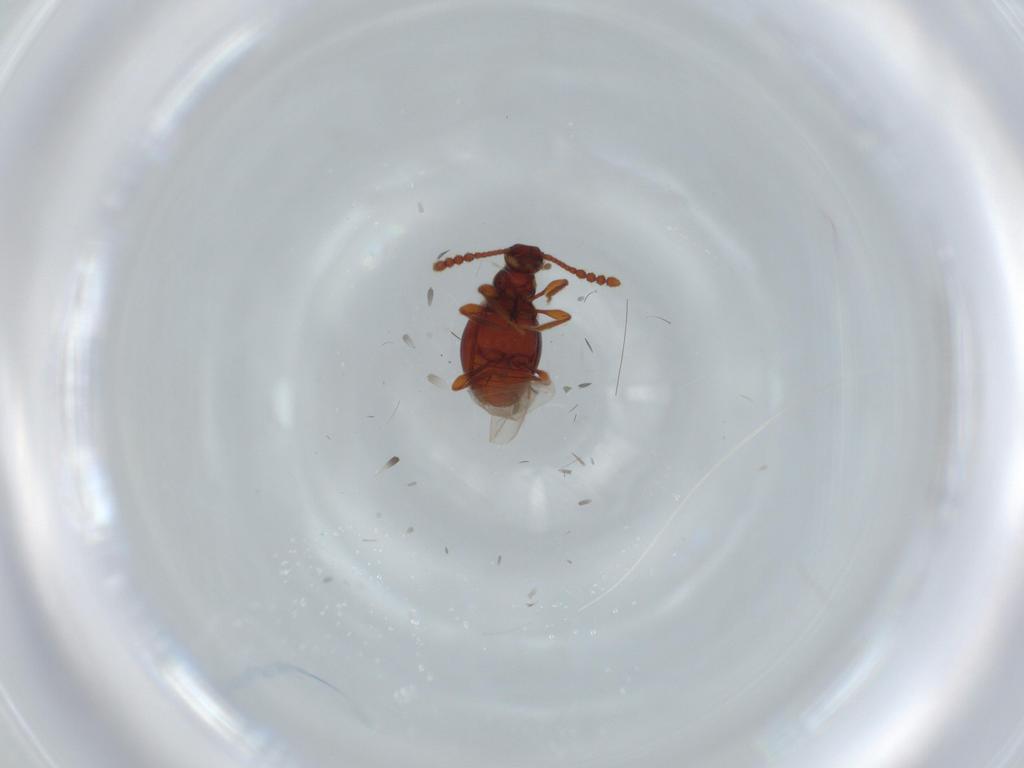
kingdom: Animalia
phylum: Arthropoda
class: Insecta
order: Coleoptera
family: Staphylinidae
